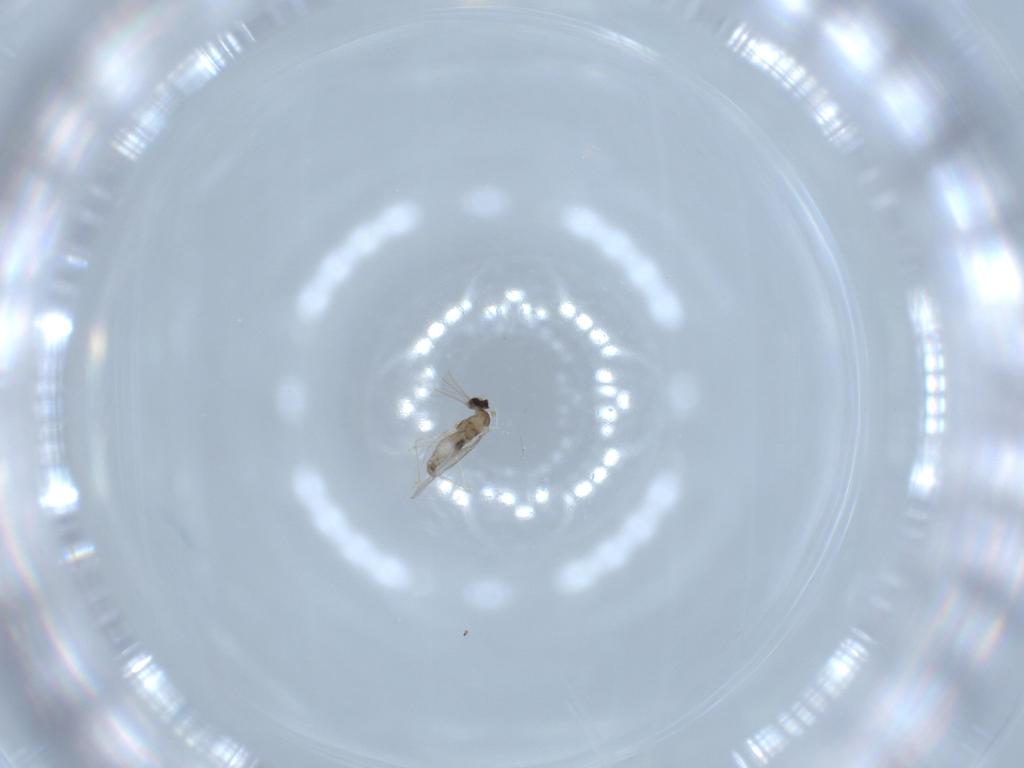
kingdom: Animalia
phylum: Arthropoda
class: Insecta
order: Diptera
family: Cecidomyiidae
